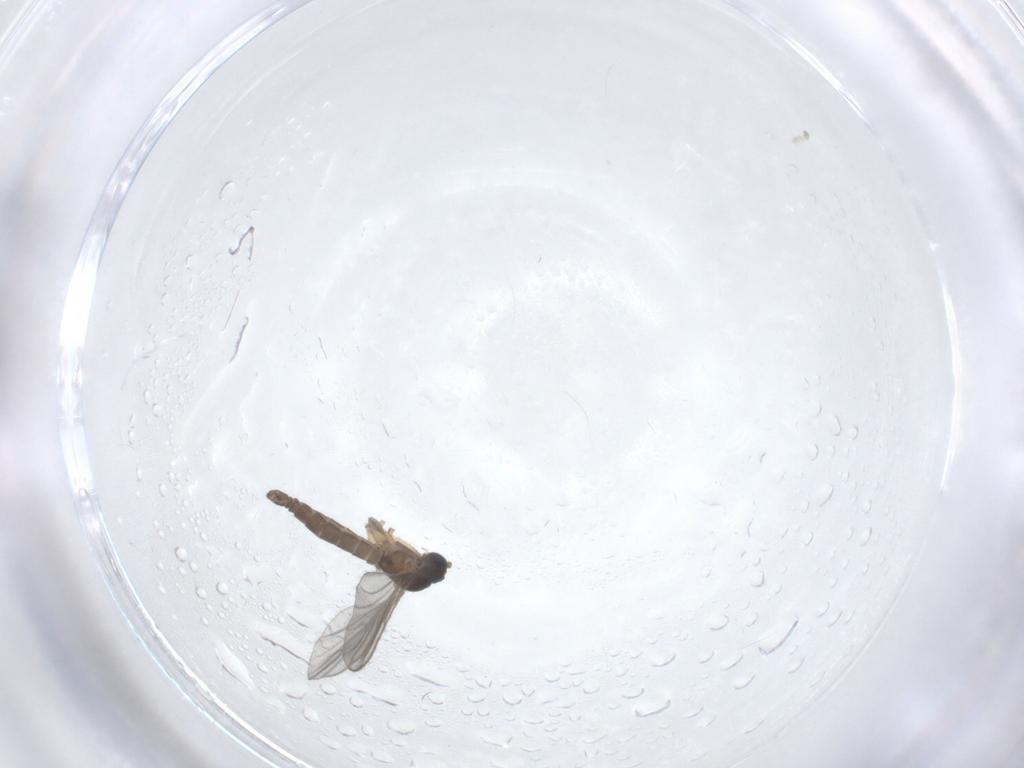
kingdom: Animalia
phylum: Arthropoda
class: Insecta
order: Diptera
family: Sciaridae
